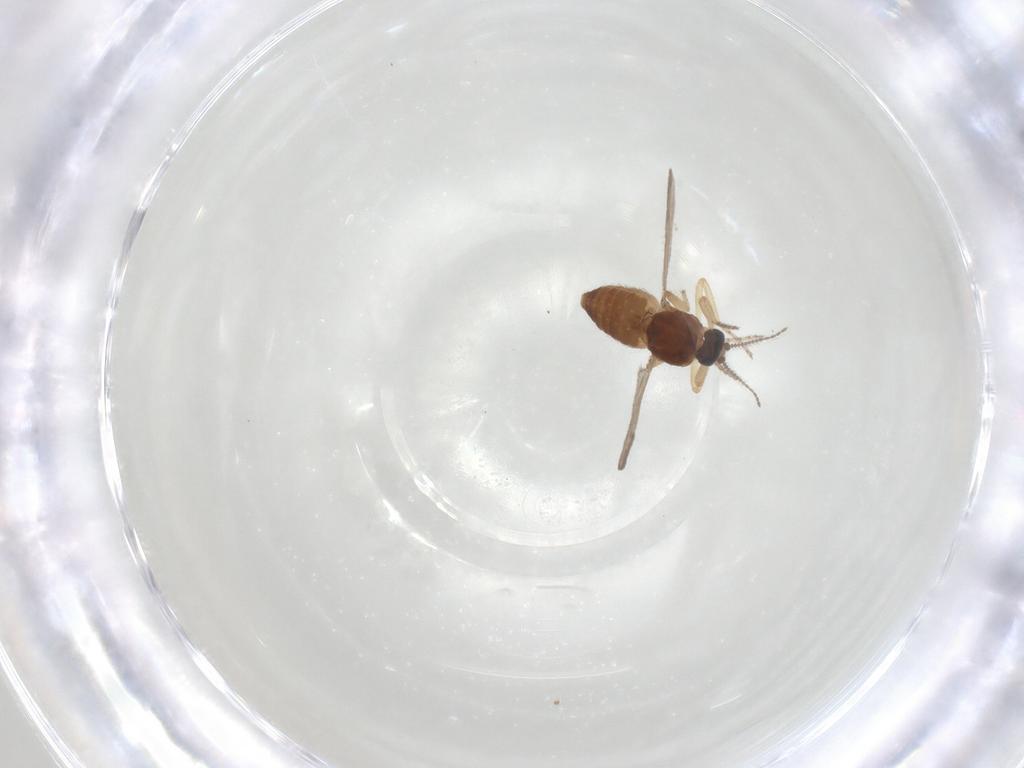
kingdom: Animalia
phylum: Arthropoda
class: Insecta
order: Diptera
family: Ceratopogonidae
